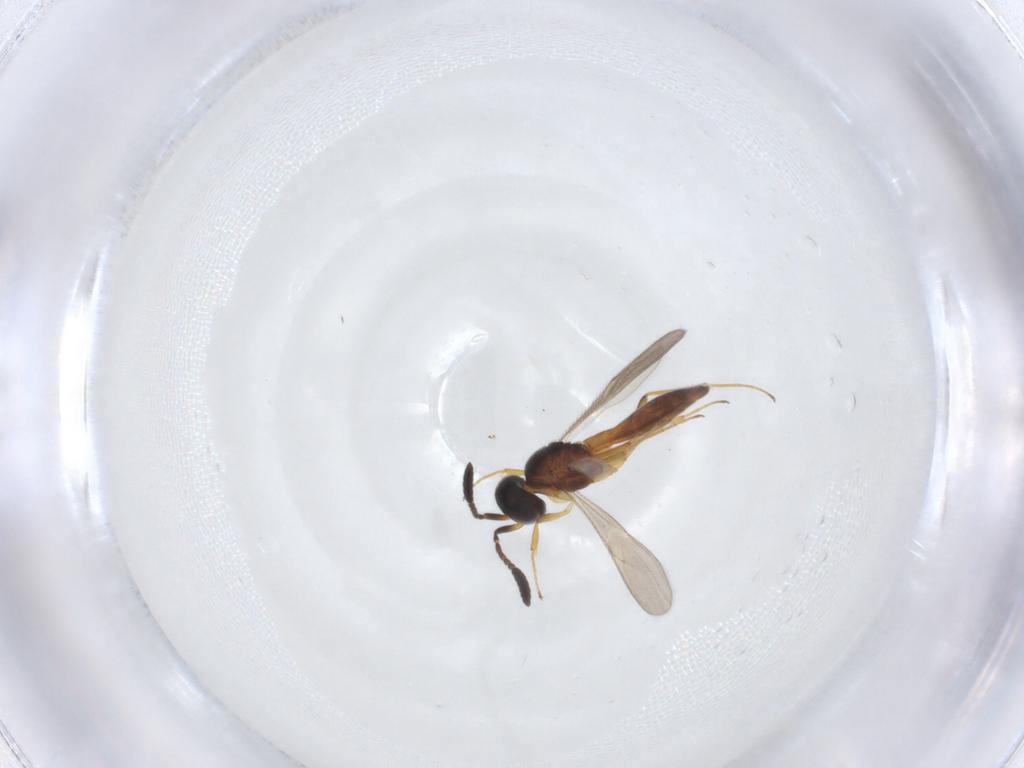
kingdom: Animalia
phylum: Arthropoda
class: Insecta
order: Hymenoptera
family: Scelionidae
